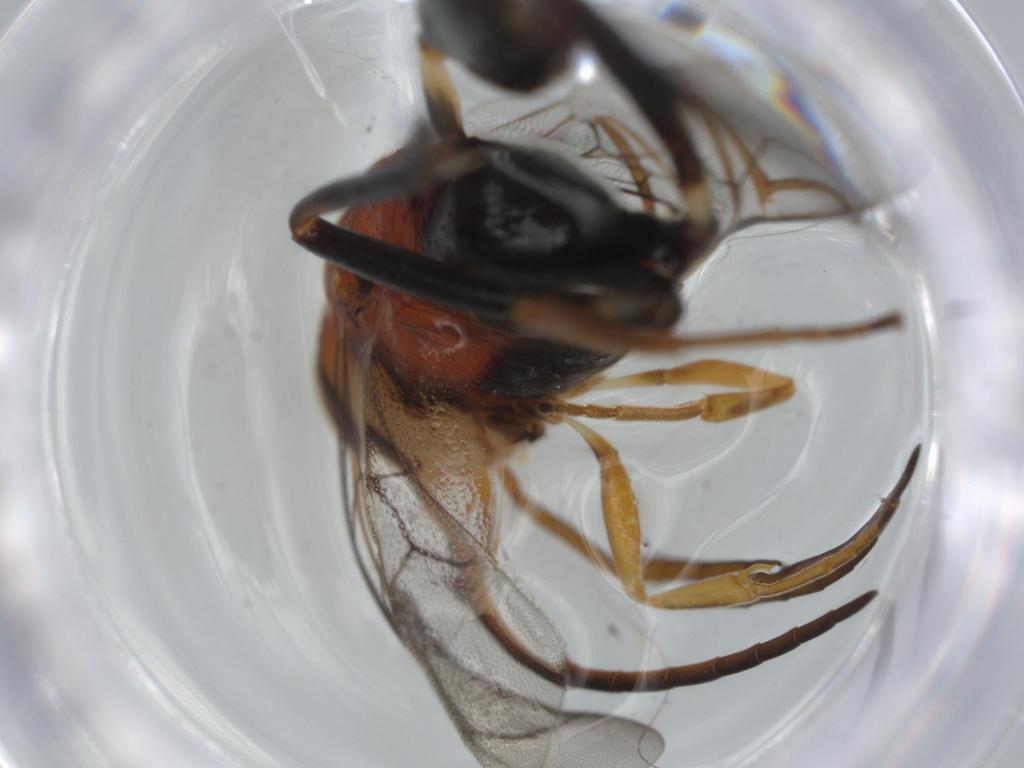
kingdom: Animalia
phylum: Arthropoda
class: Insecta
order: Hymenoptera
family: Evaniidae
